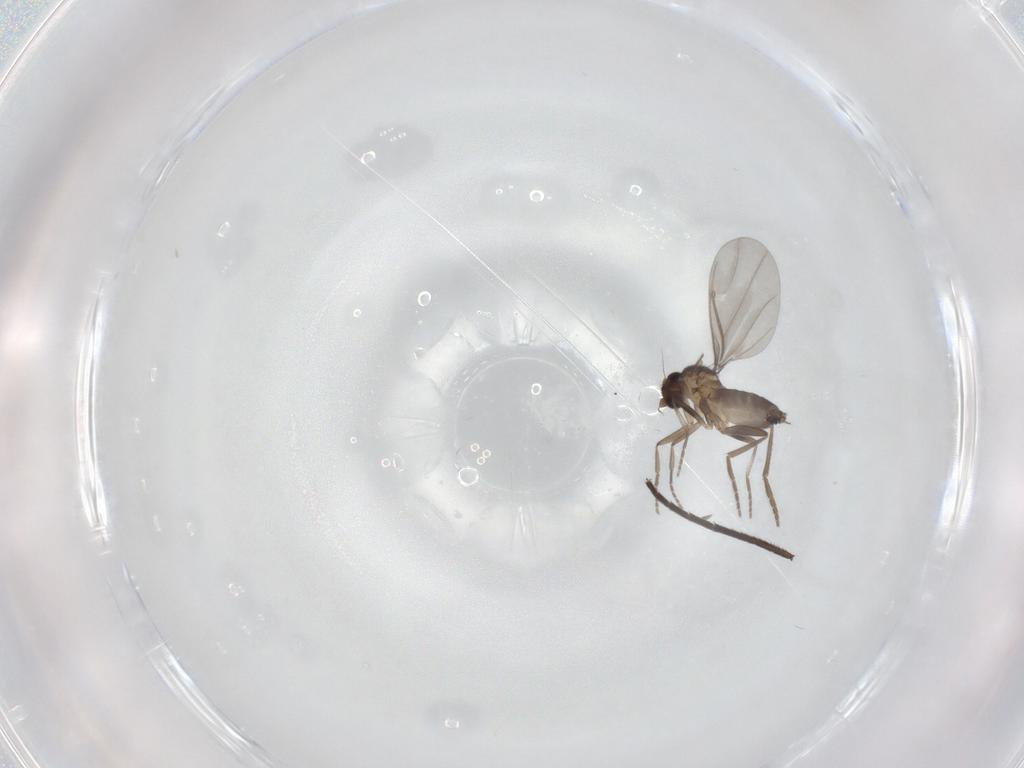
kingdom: Animalia
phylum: Arthropoda
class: Insecta
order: Diptera
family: Phoridae
